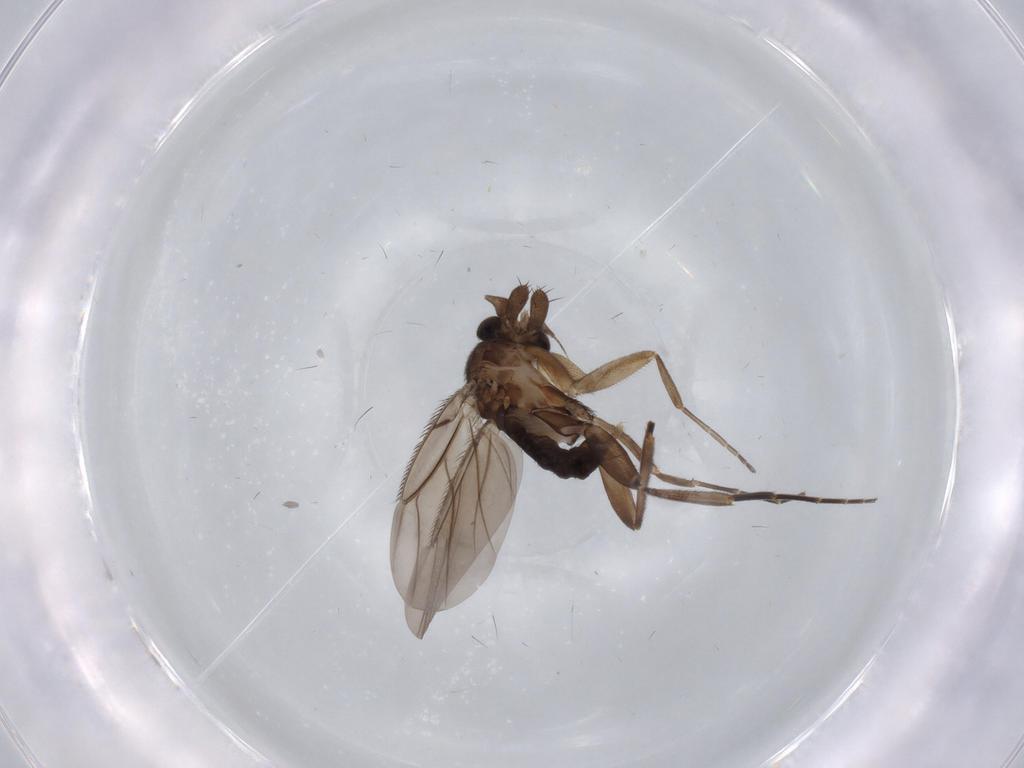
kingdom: Animalia
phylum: Arthropoda
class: Insecta
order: Diptera
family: Phoridae
